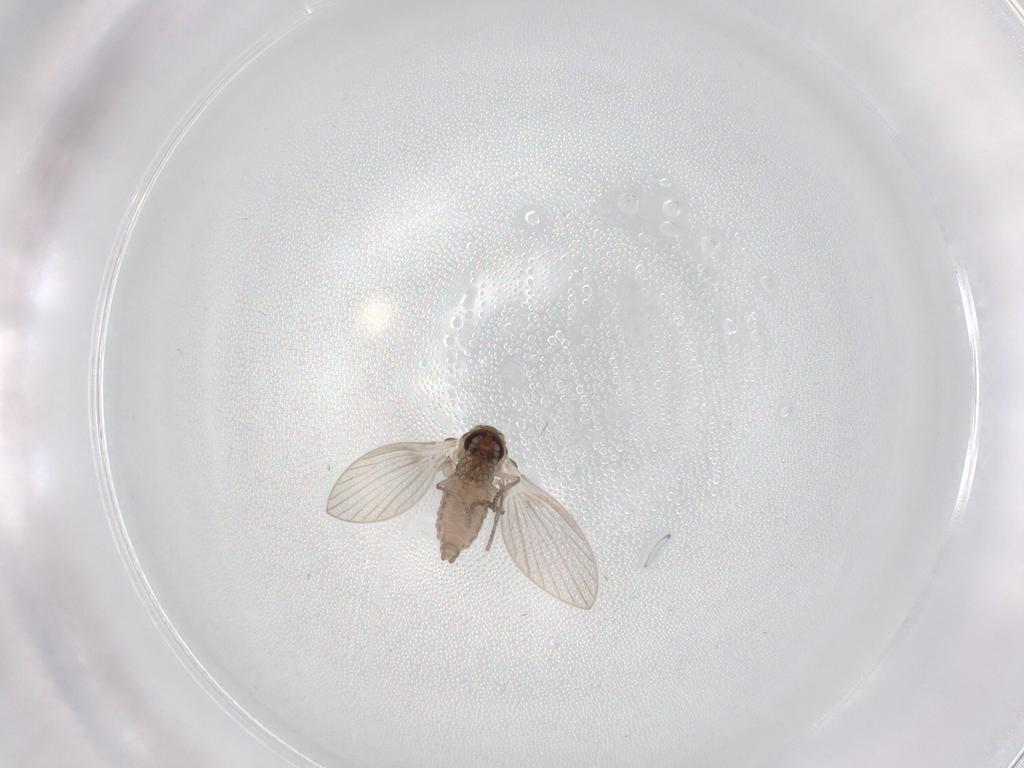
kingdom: Animalia
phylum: Arthropoda
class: Insecta
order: Diptera
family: Psychodidae
